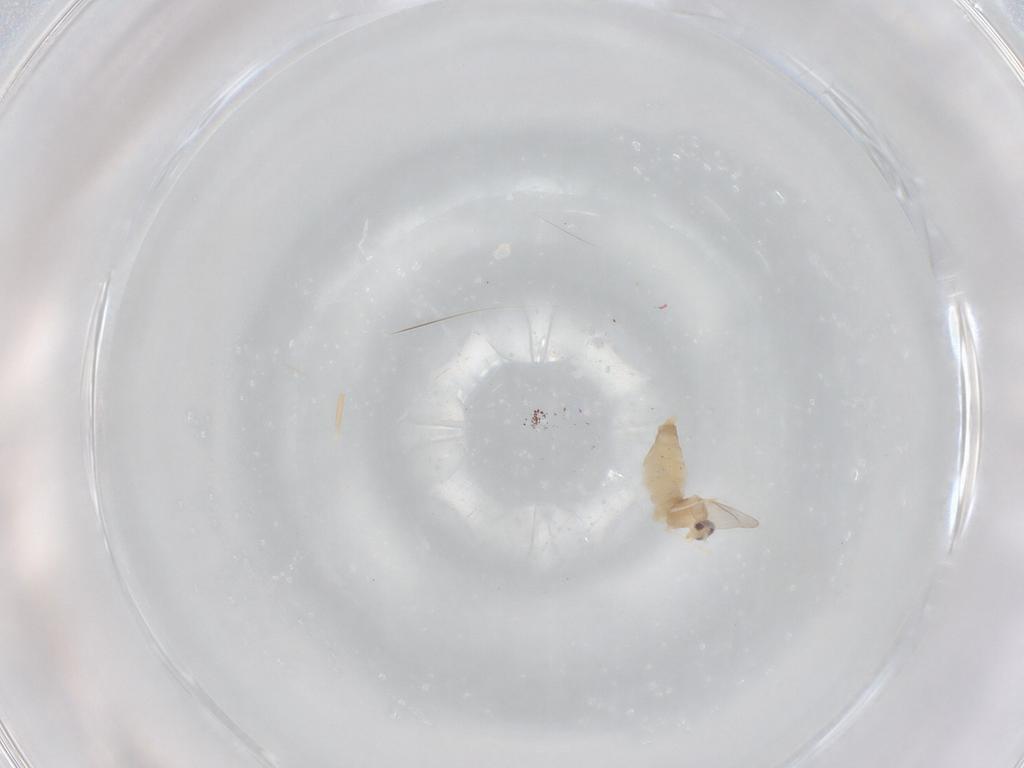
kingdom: Animalia
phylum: Arthropoda
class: Insecta
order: Diptera
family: Cecidomyiidae
